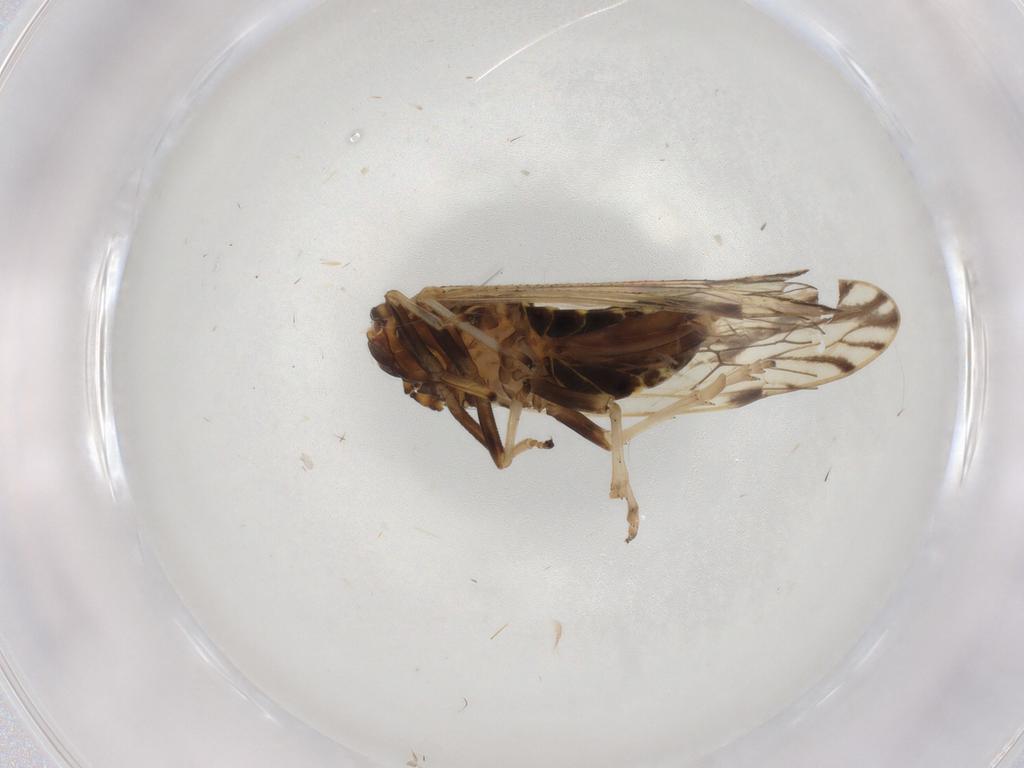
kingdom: Animalia
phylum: Arthropoda
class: Insecta
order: Hemiptera
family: Delphacidae
